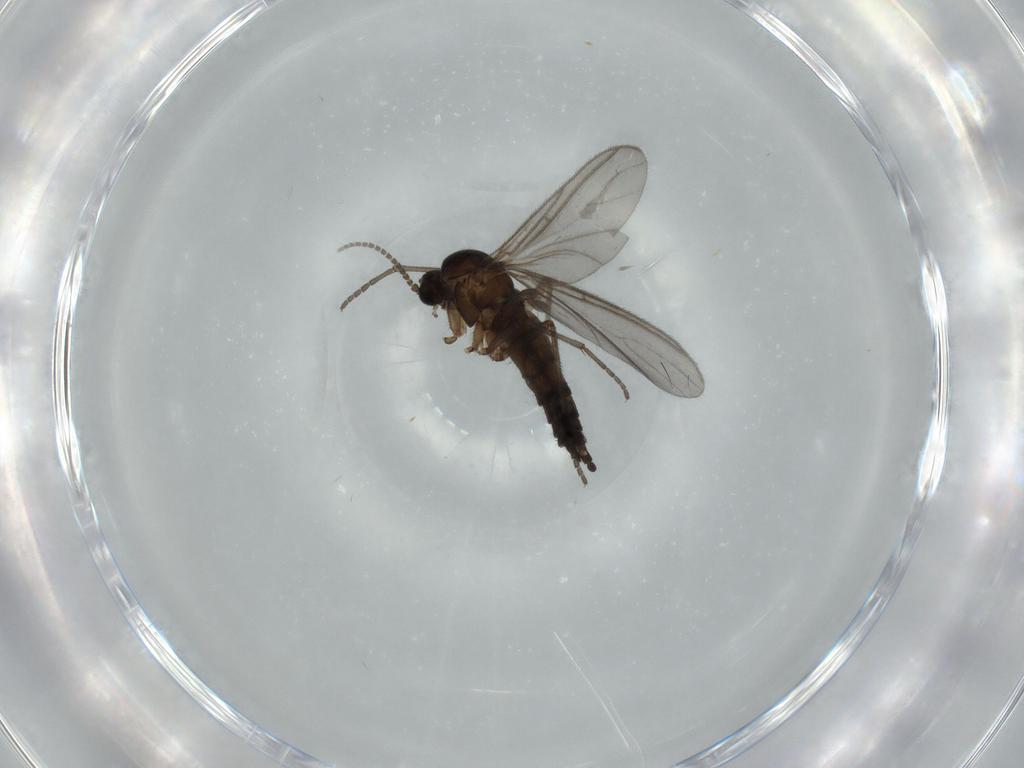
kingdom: Animalia
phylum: Arthropoda
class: Insecta
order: Diptera
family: Sciaridae
